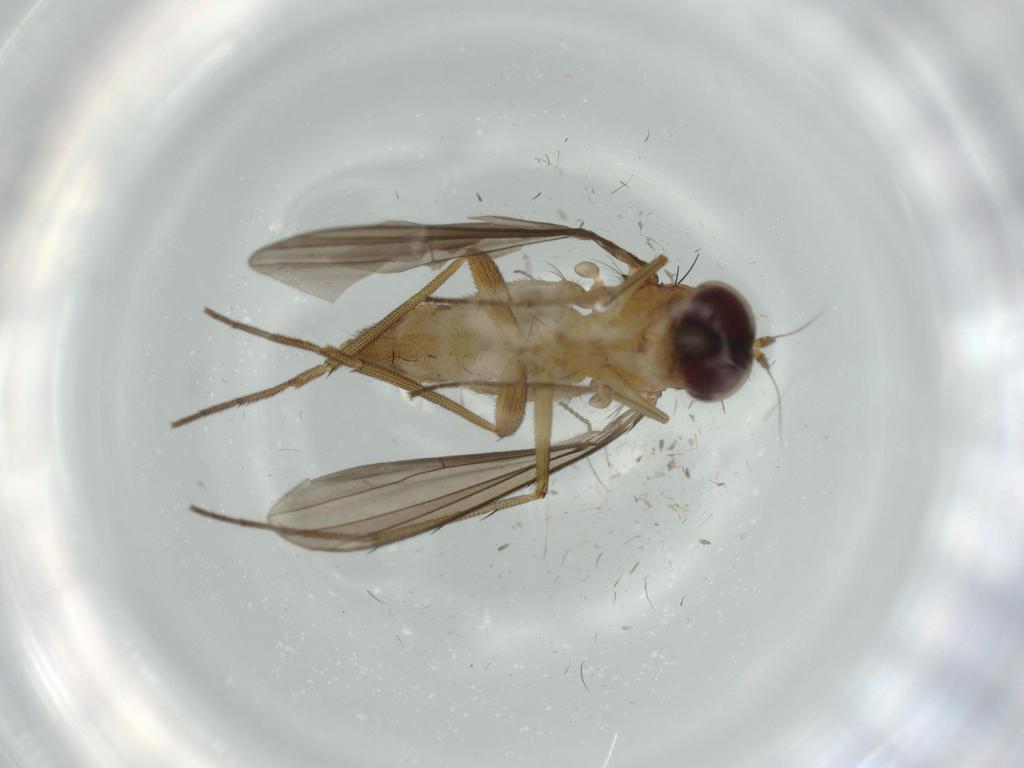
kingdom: Animalia
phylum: Arthropoda
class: Insecta
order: Diptera
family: Dolichopodidae
